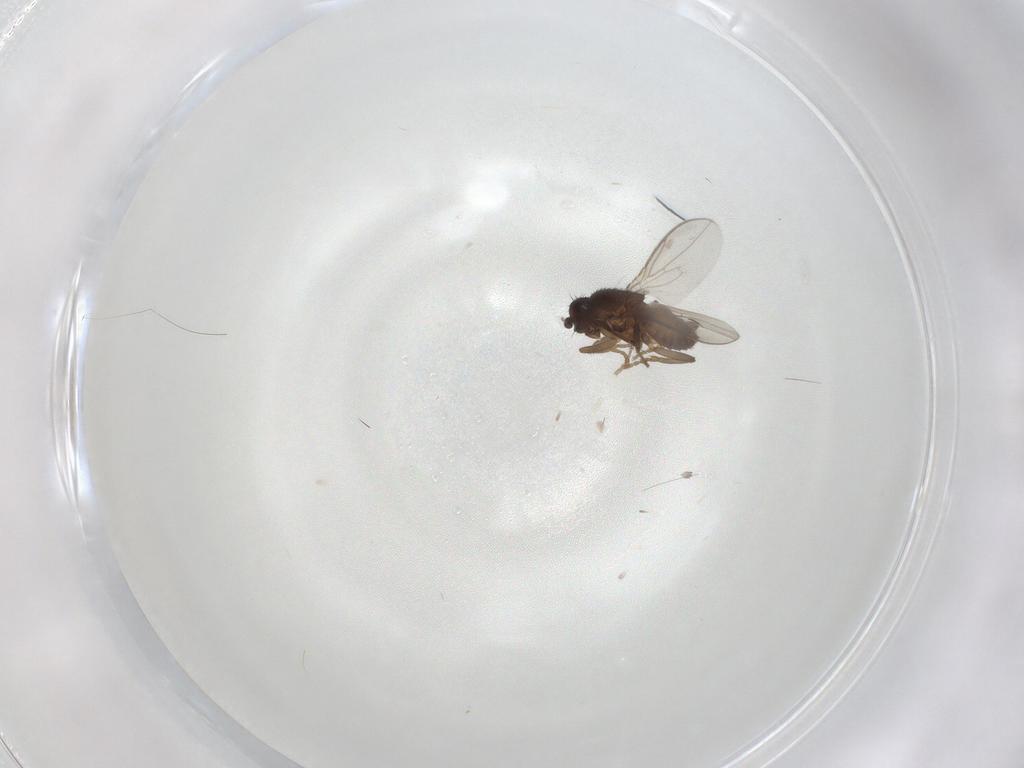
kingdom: Animalia
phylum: Arthropoda
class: Insecta
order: Diptera
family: Sphaeroceridae
